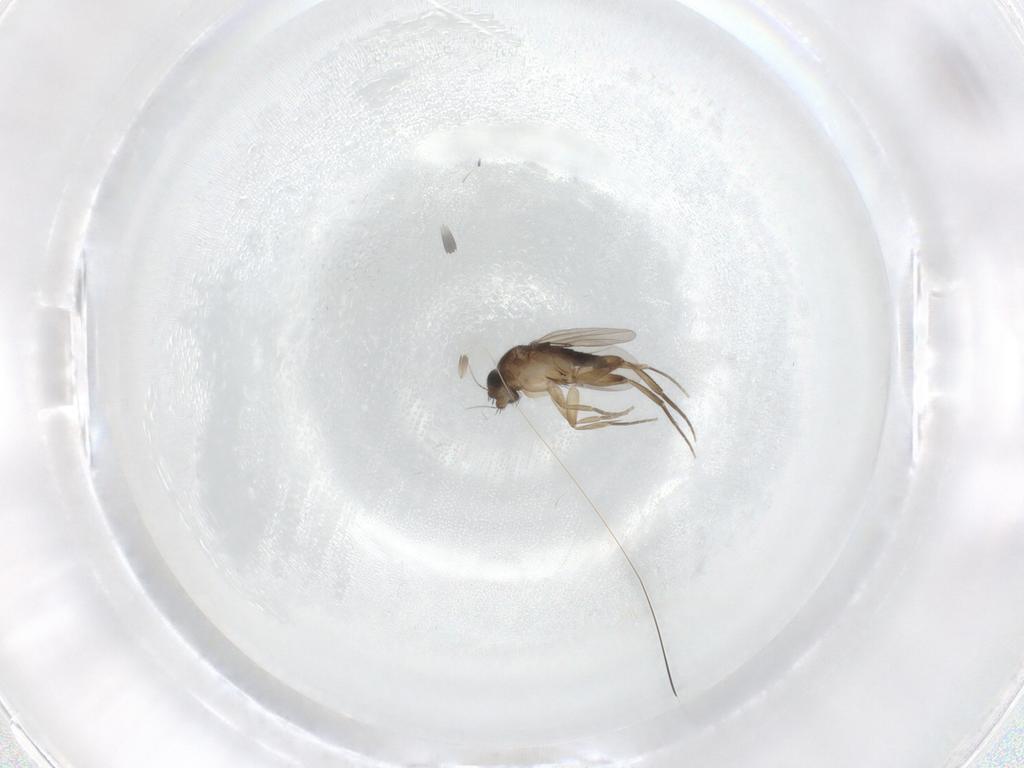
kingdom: Animalia
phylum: Arthropoda
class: Insecta
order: Diptera
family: Phoridae
